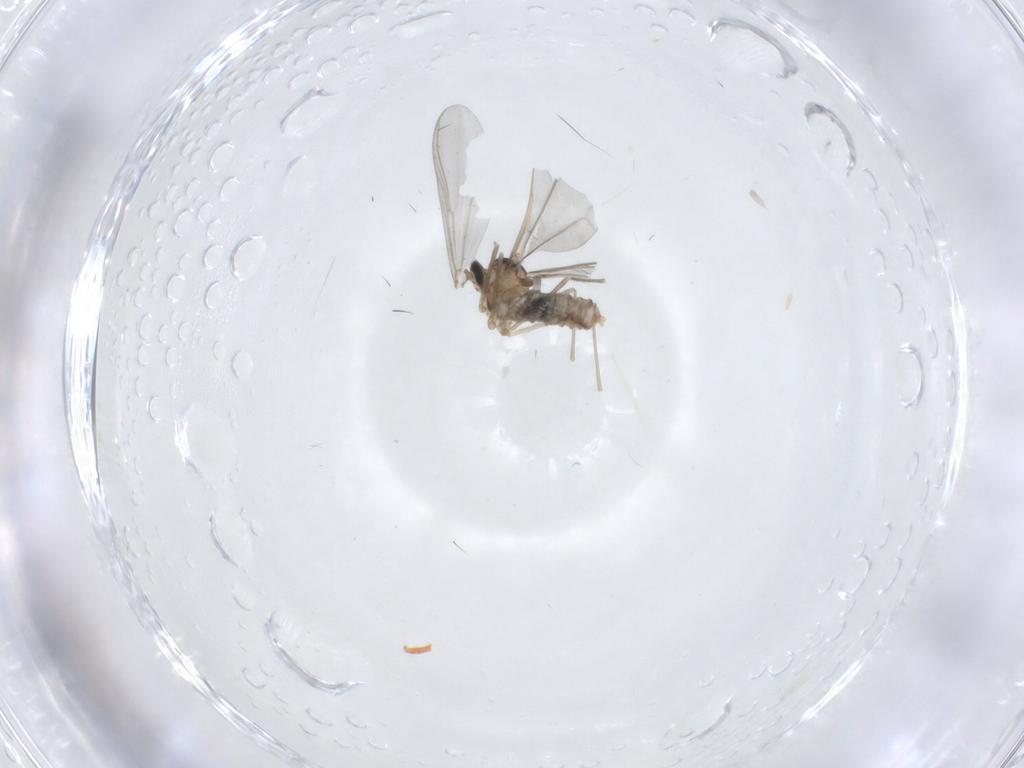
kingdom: Animalia
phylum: Arthropoda
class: Insecta
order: Diptera
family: Chironomidae
